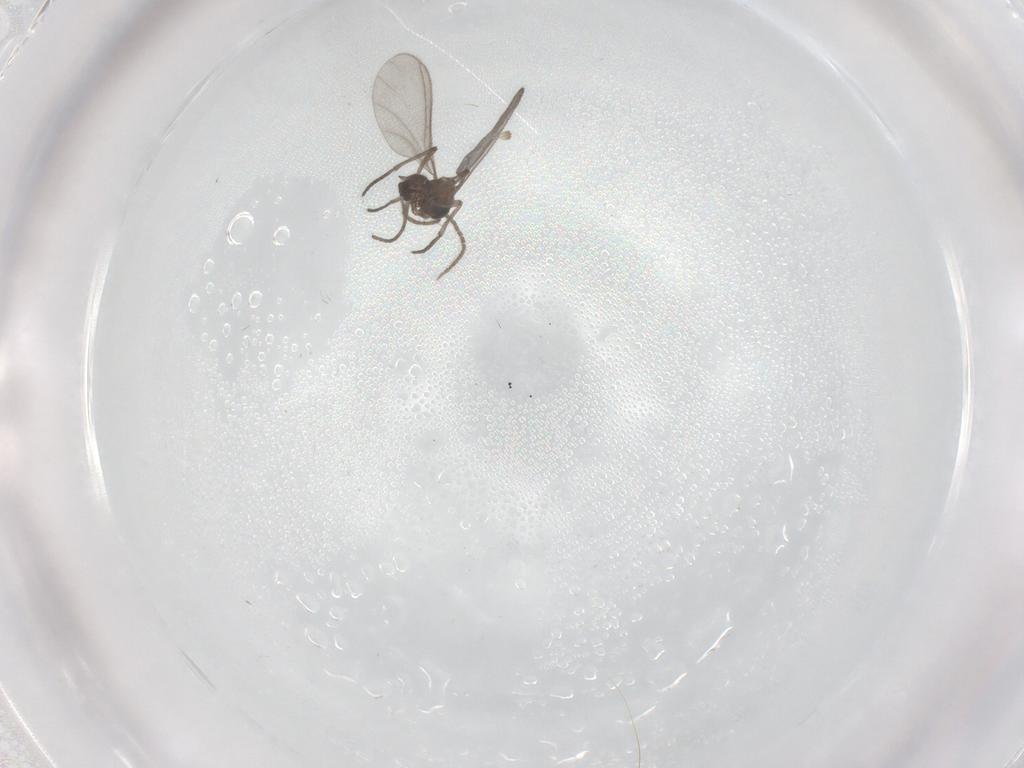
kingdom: Animalia
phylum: Arthropoda
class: Insecta
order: Diptera
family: Sciaridae
